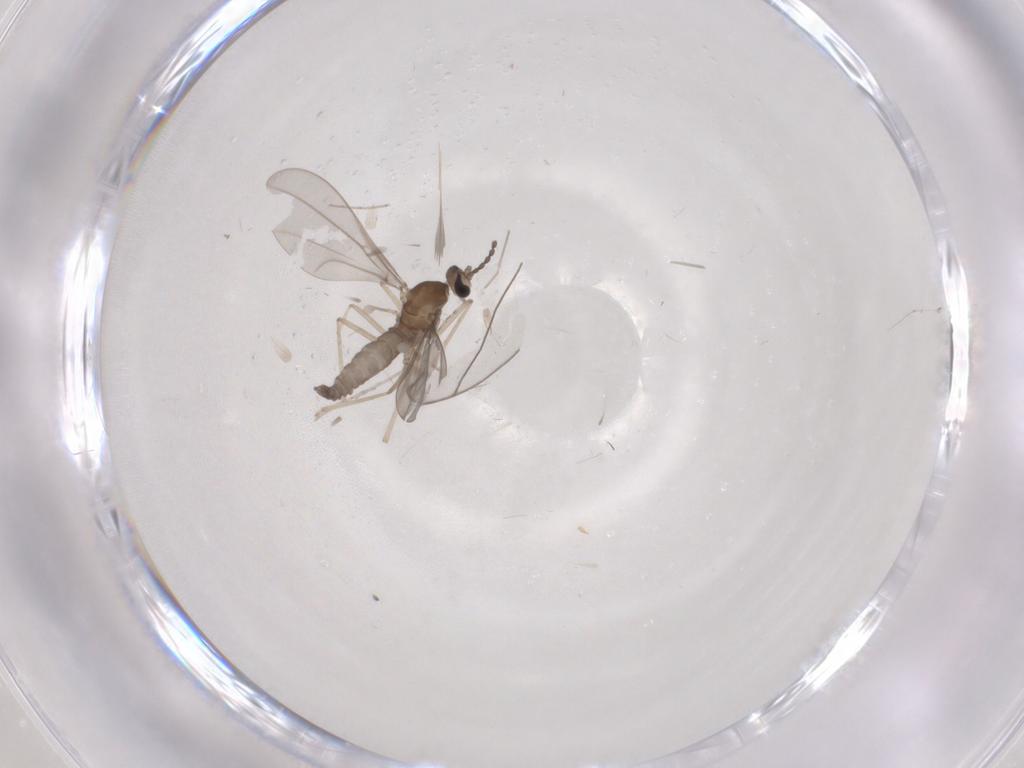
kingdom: Animalia
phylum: Arthropoda
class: Insecta
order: Diptera
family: Cecidomyiidae
